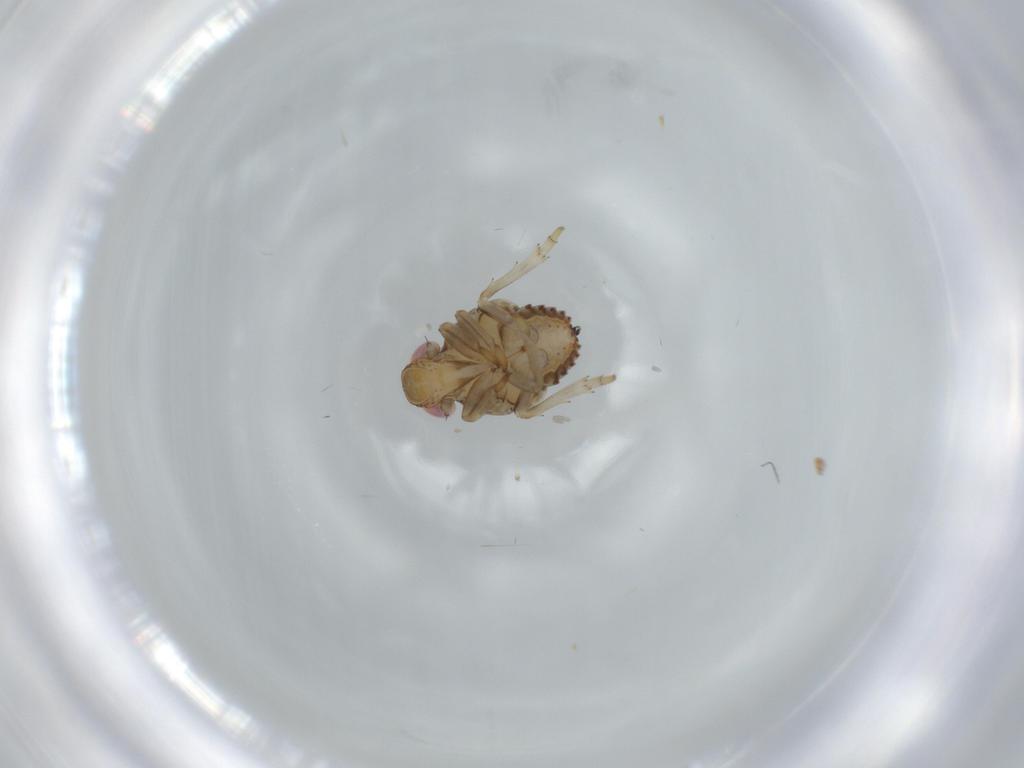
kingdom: Animalia
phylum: Arthropoda
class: Insecta
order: Hemiptera
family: Issidae
